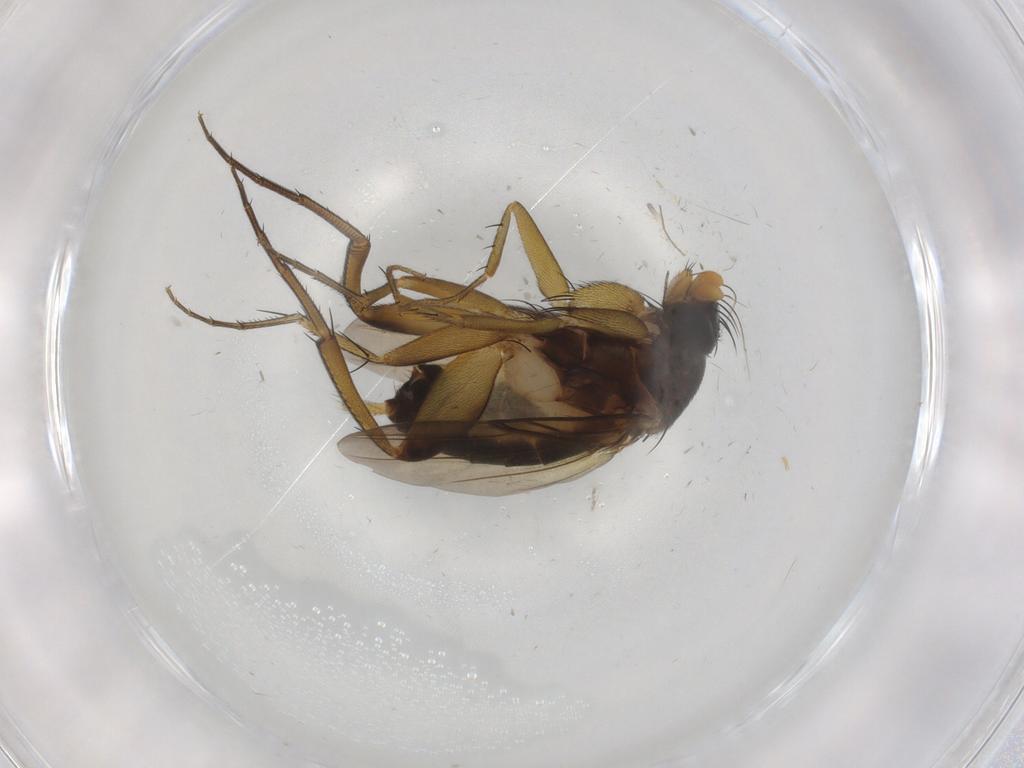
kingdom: Animalia
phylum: Arthropoda
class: Insecta
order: Diptera
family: Phoridae
